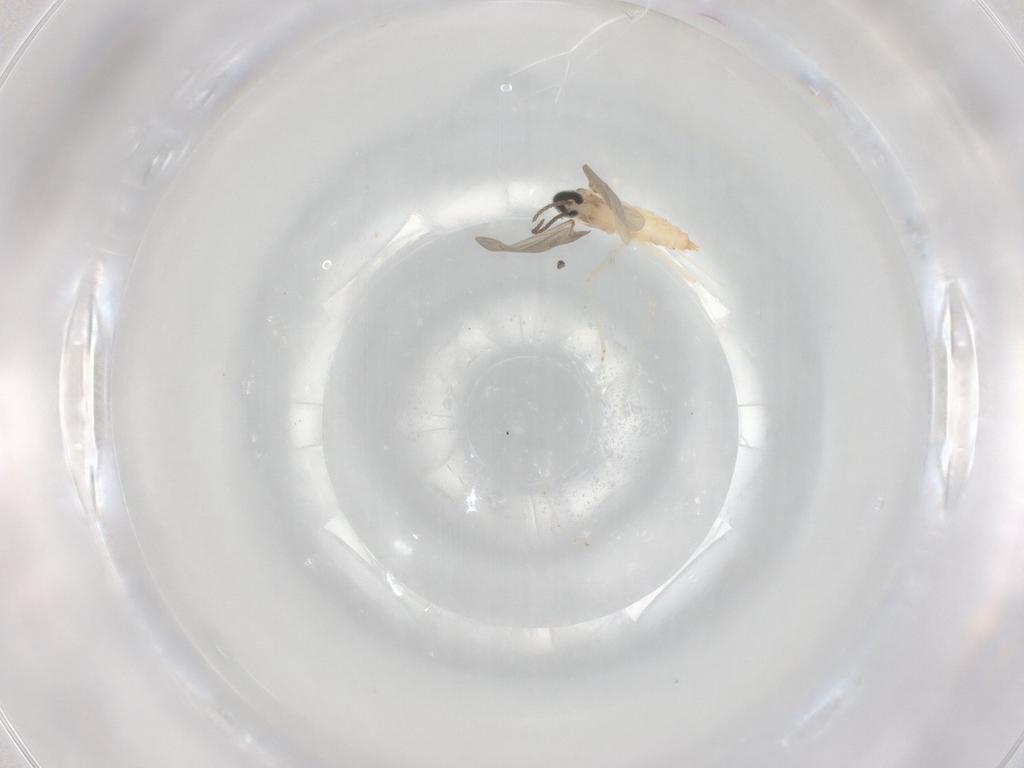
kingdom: Animalia
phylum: Arthropoda
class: Insecta
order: Diptera
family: Cecidomyiidae
